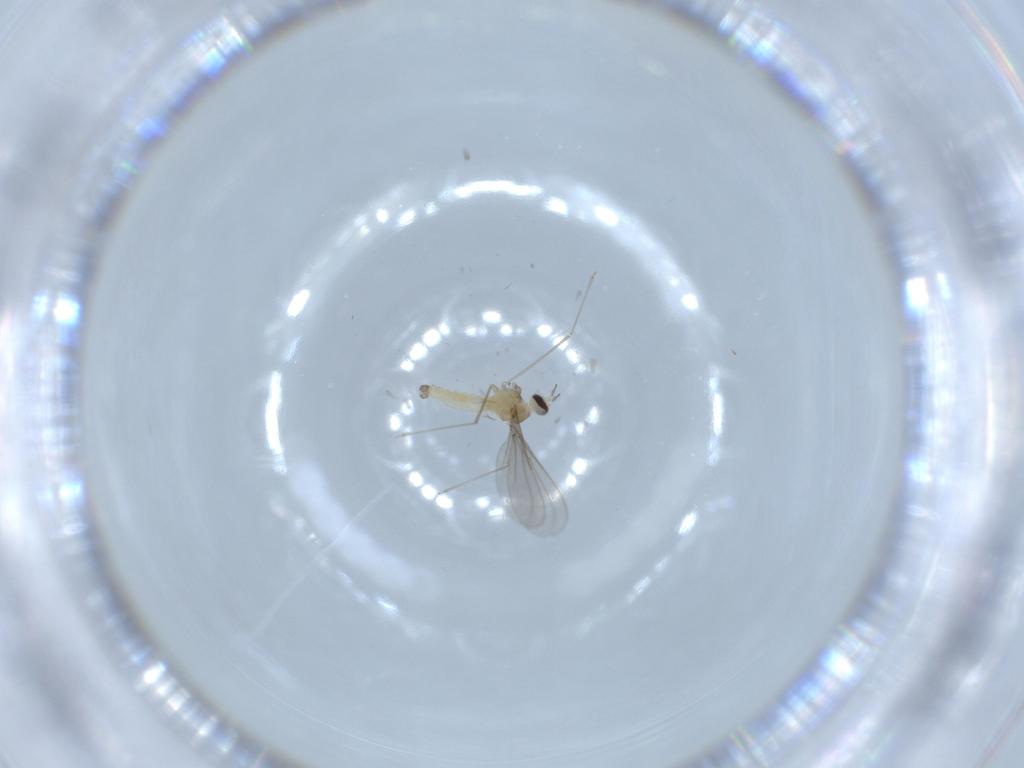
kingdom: Animalia
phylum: Arthropoda
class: Insecta
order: Diptera
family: Cecidomyiidae
